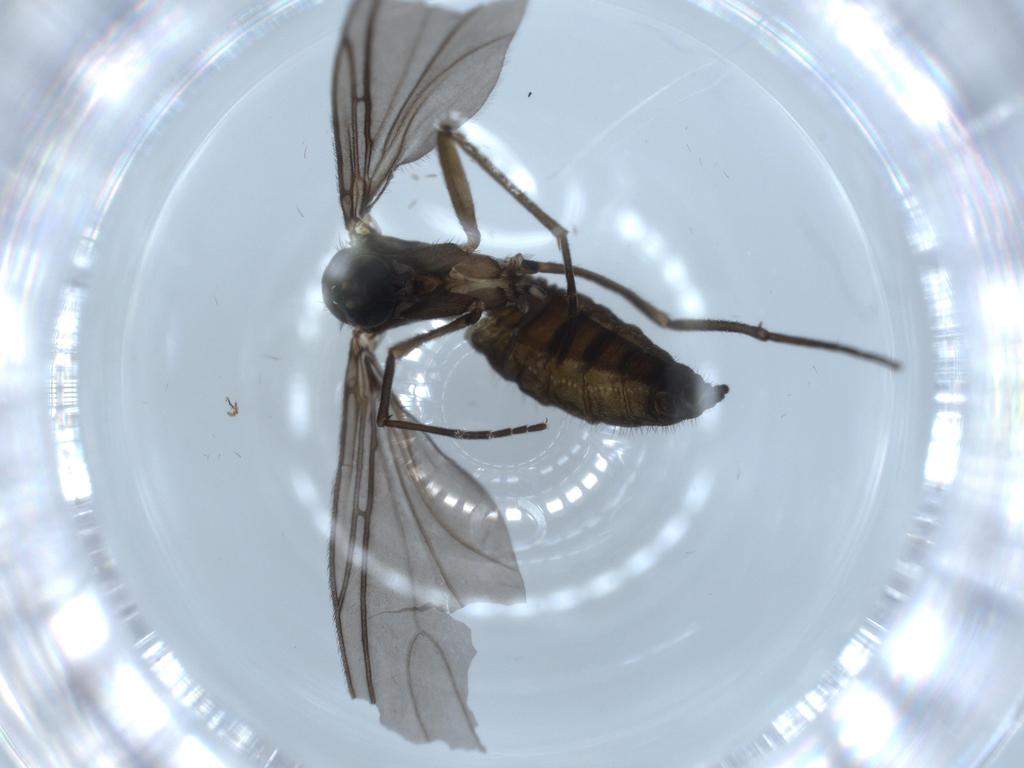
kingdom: Animalia
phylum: Arthropoda
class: Insecta
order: Diptera
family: Sciaridae
